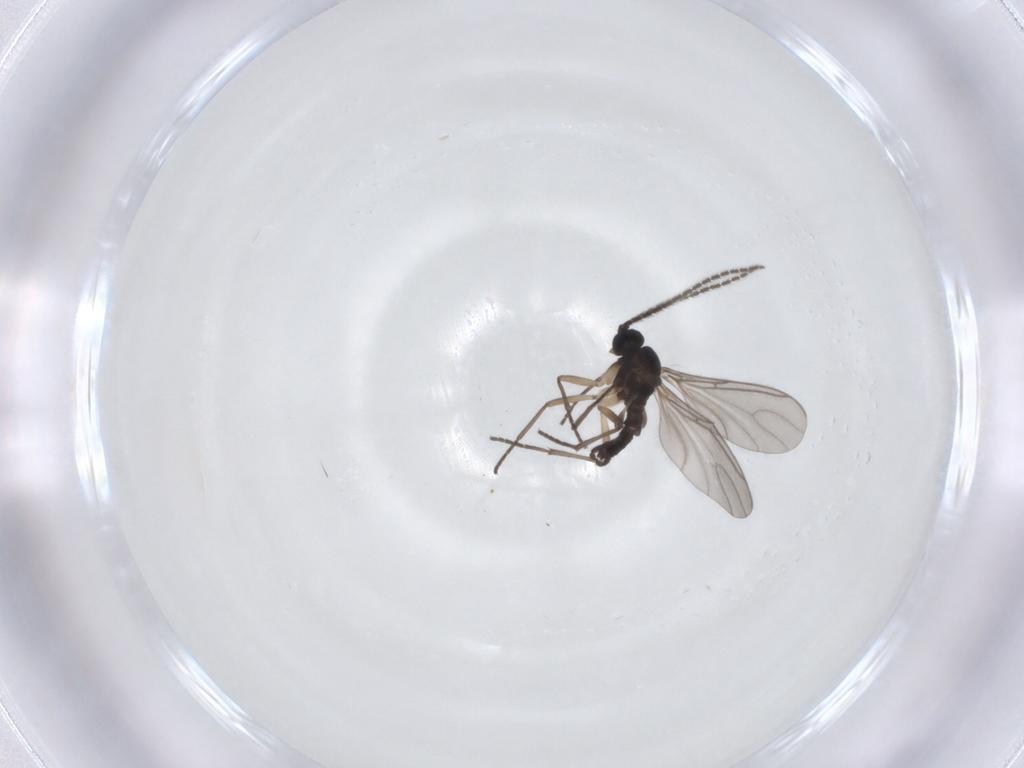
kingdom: Animalia
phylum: Arthropoda
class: Insecta
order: Diptera
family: Sciaridae
